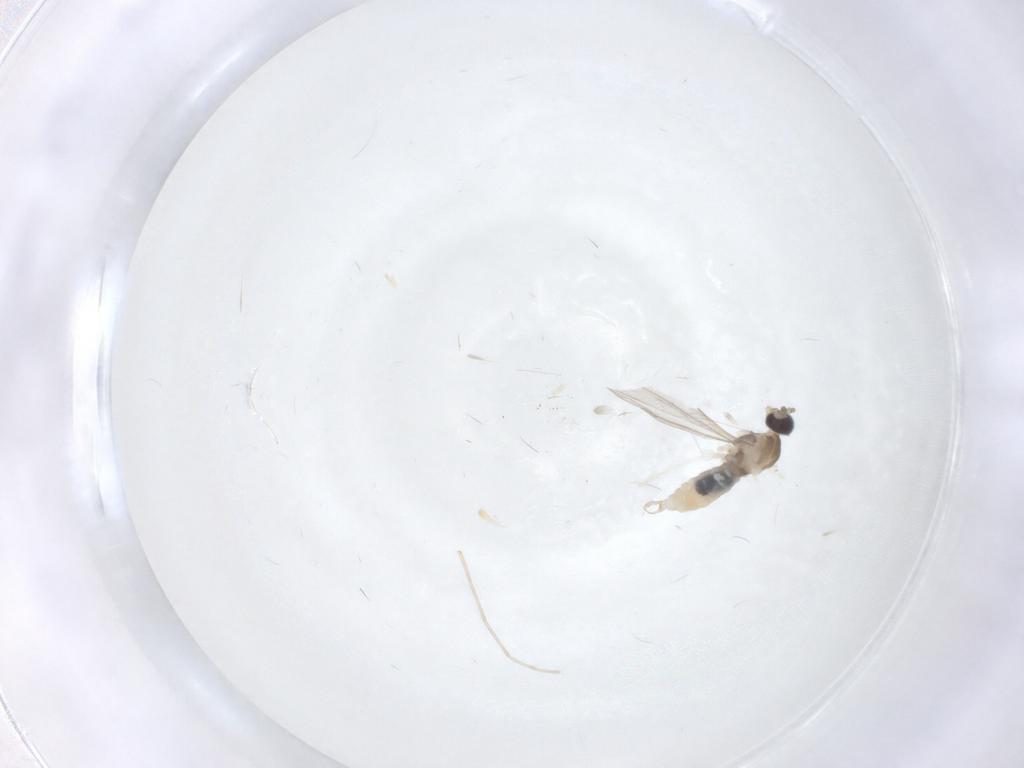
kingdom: Animalia
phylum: Arthropoda
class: Insecta
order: Diptera
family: Cecidomyiidae
